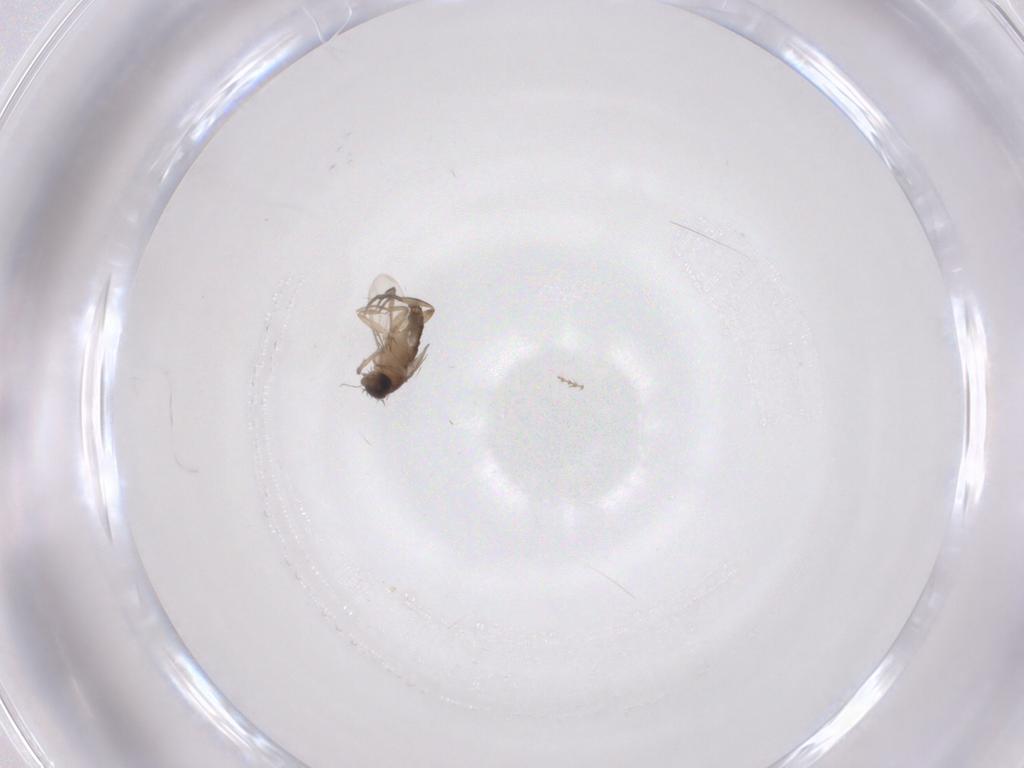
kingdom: Animalia
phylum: Arthropoda
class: Insecta
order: Diptera
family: Phoridae
